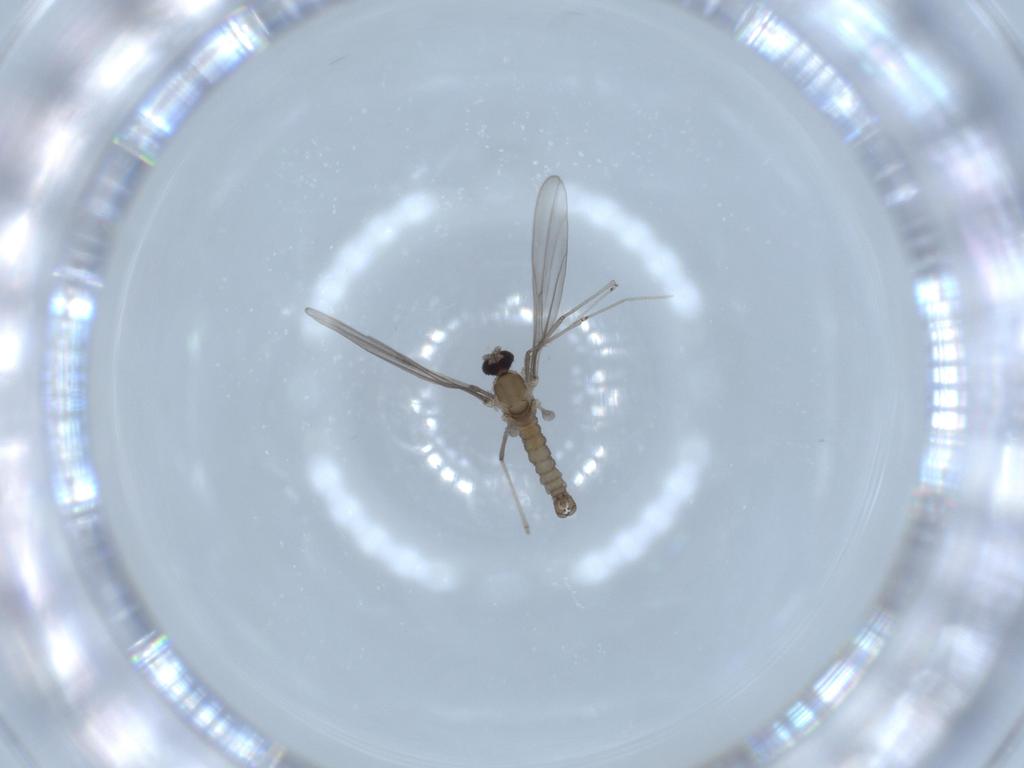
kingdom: Animalia
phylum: Arthropoda
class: Insecta
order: Diptera
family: Cecidomyiidae
